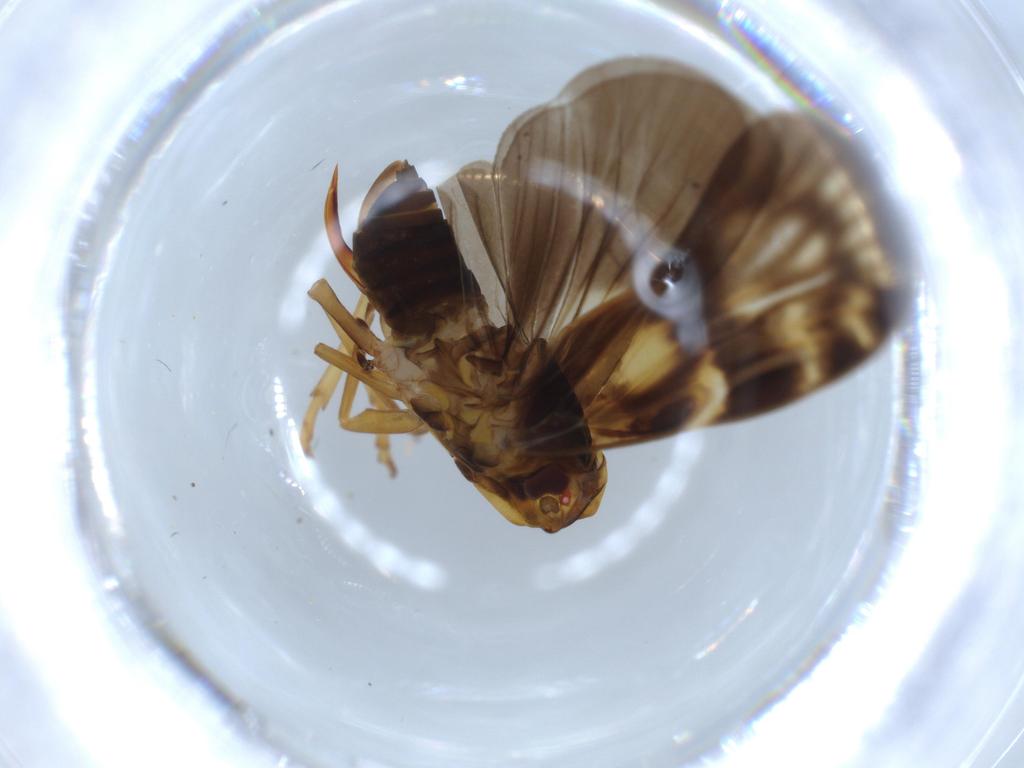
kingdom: Animalia
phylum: Arthropoda
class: Insecta
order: Hemiptera
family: Cixiidae
